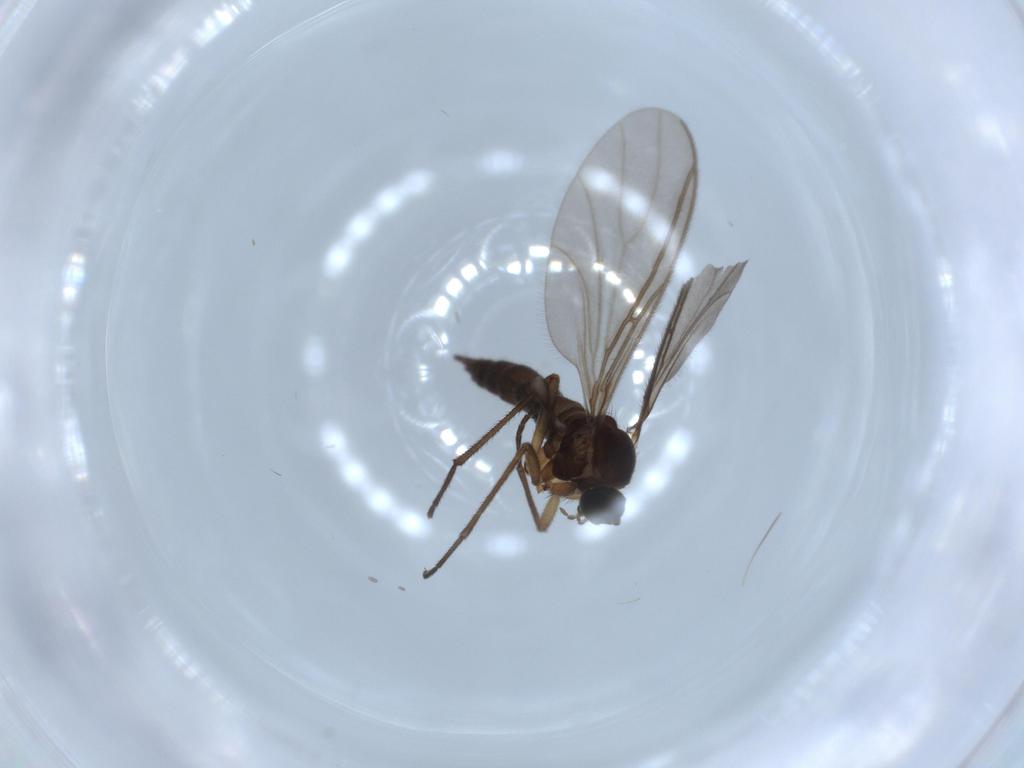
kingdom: Animalia
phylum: Arthropoda
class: Insecta
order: Diptera
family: Sciaridae
